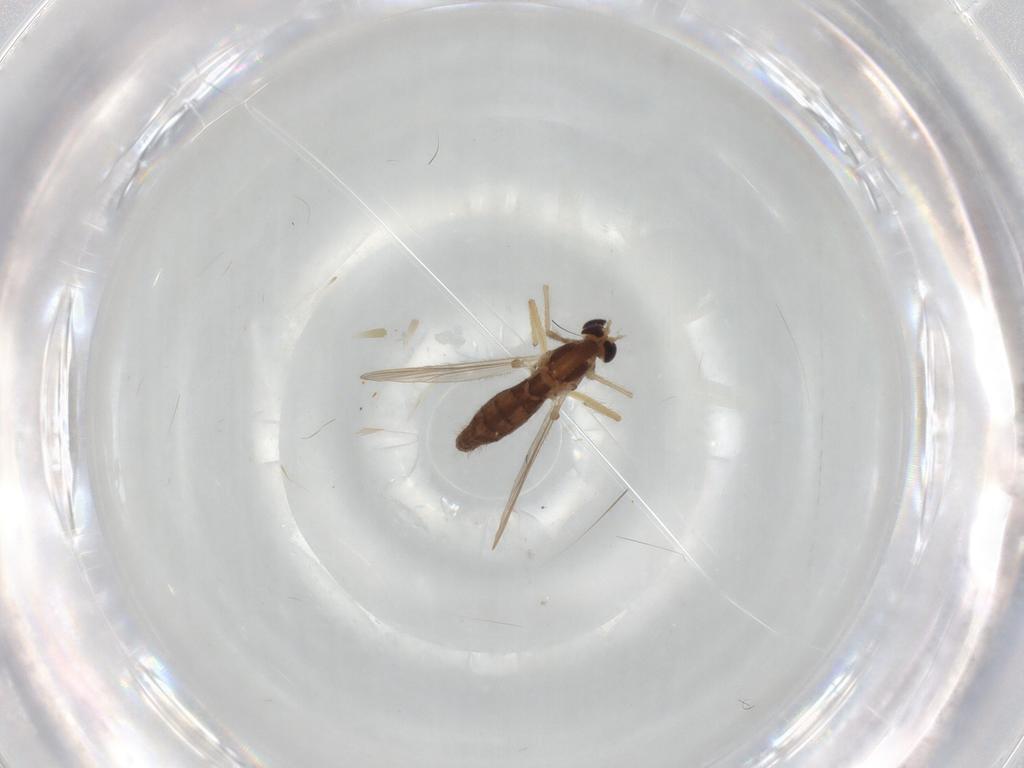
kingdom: Animalia
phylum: Arthropoda
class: Insecta
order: Diptera
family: Chironomidae
